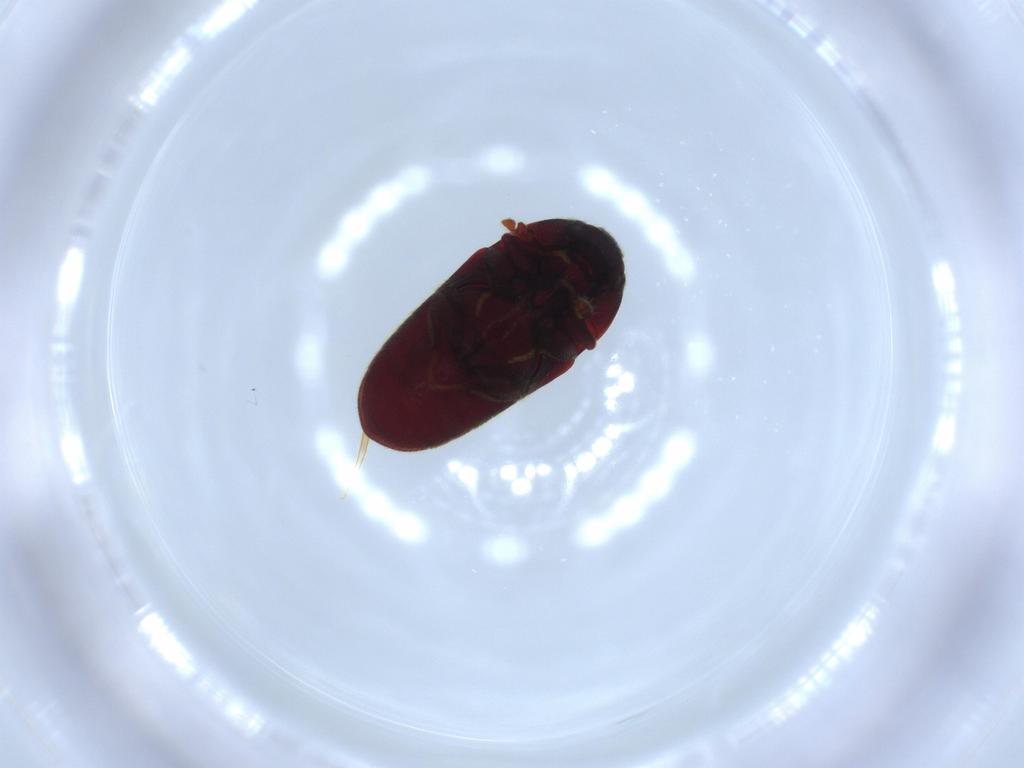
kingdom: Animalia
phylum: Arthropoda
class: Insecta
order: Coleoptera
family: Throscidae
